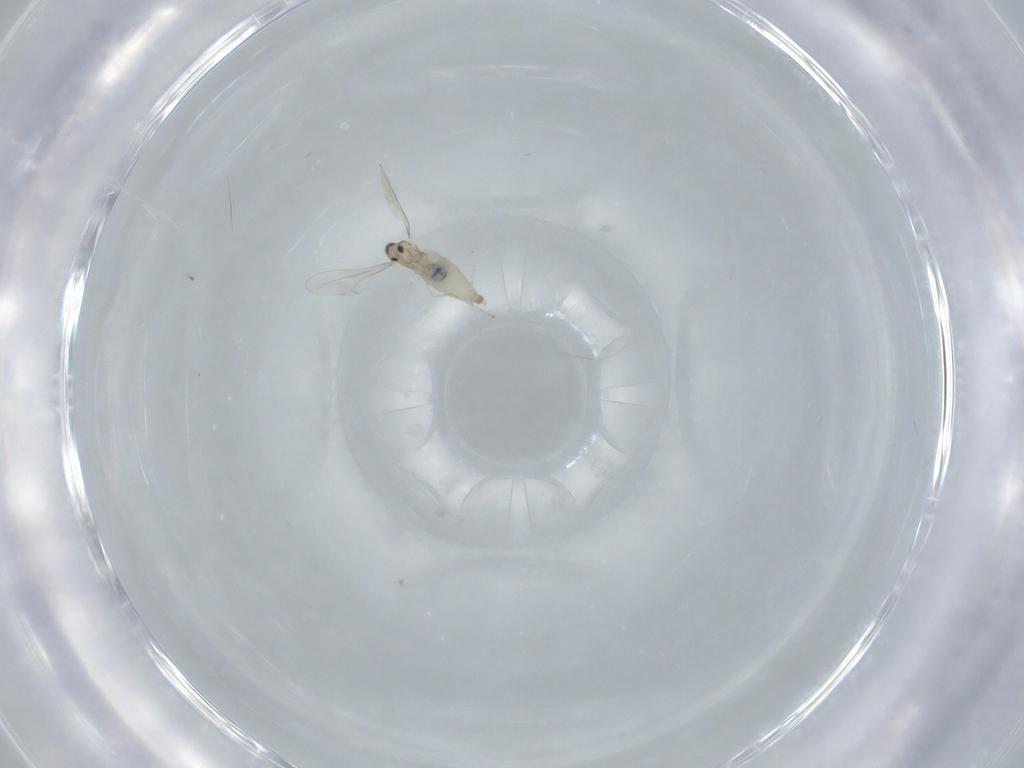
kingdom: Animalia
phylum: Arthropoda
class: Insecta
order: Diptera
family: Cecidomyiidae
